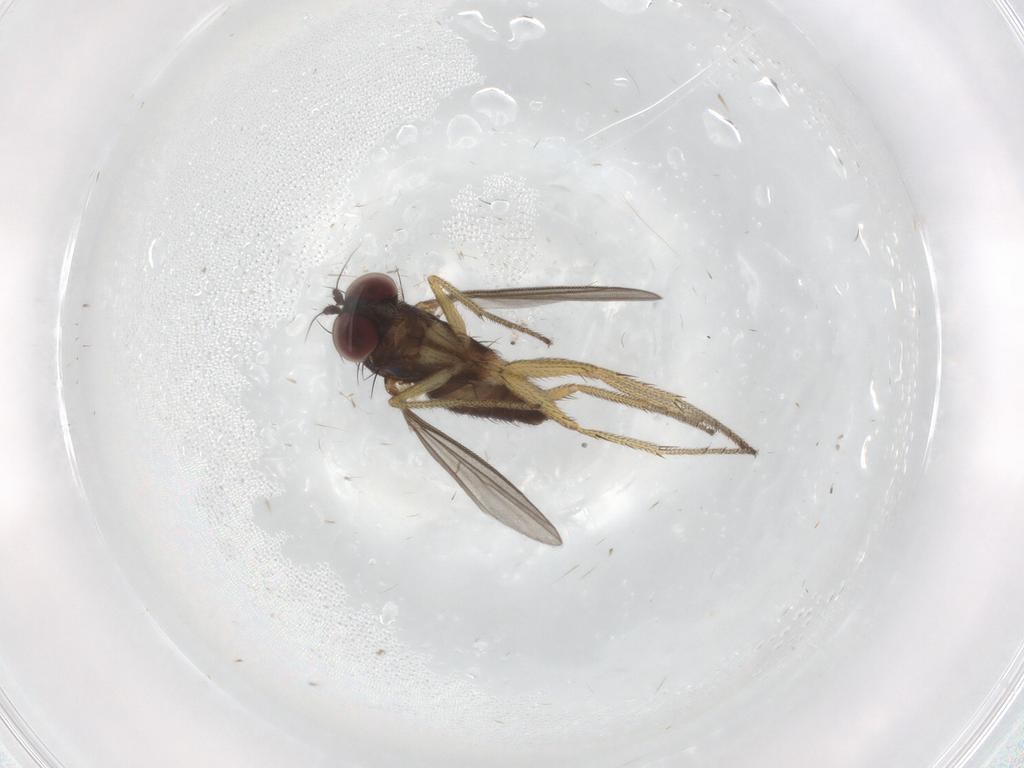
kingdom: Animalia
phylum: Arthropoda
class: Insecta
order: Diptera
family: Dolichopodidae
